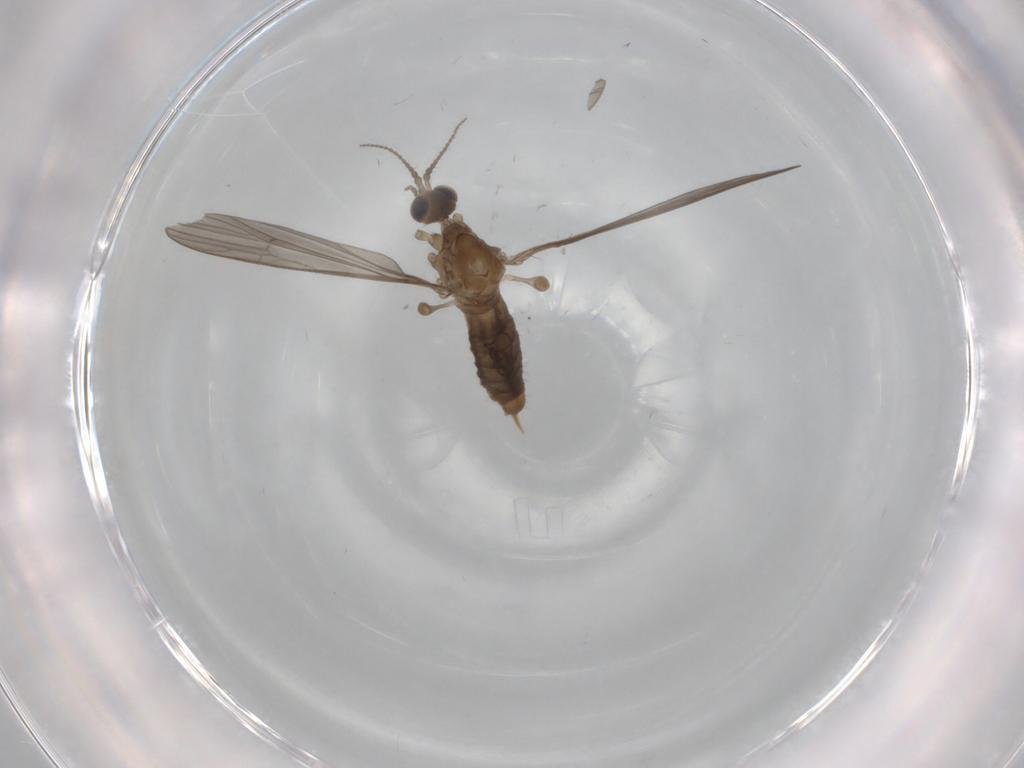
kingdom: Animalia
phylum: Arthropoda
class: Insecta
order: Diptera
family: Limoniidae
